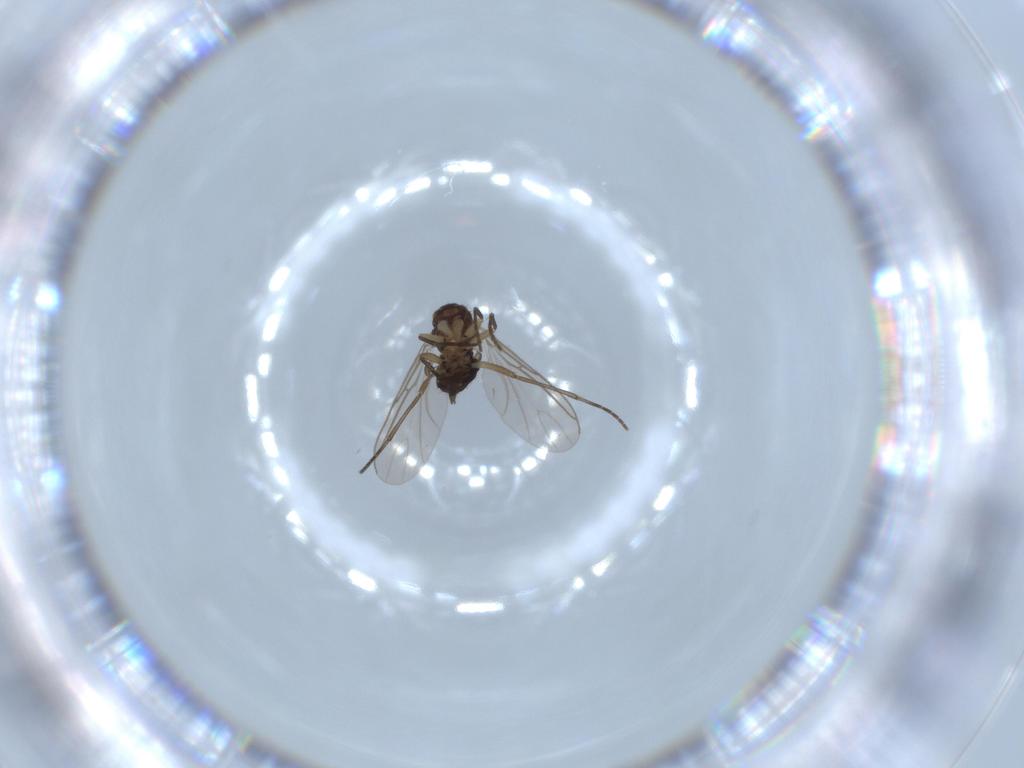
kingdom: Animalia
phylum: Arthropoda
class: Insecta
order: Diptera
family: Sciaridae
